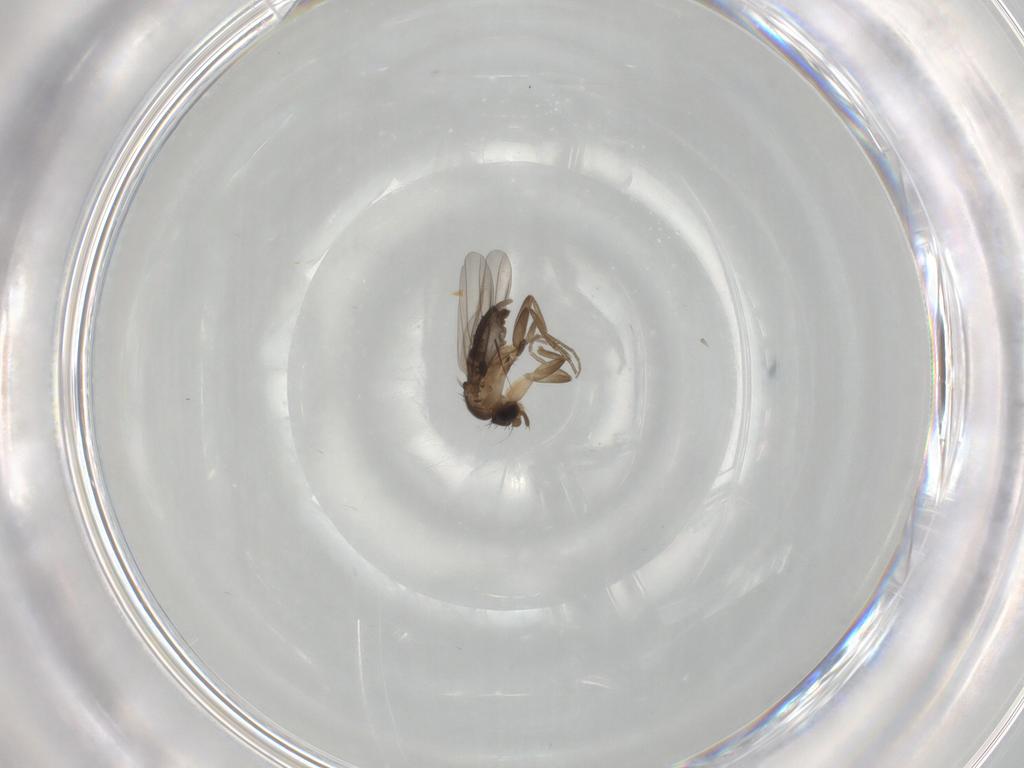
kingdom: Animalia
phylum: Arthropoda
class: Insecta
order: Diptera
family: Phoridae
